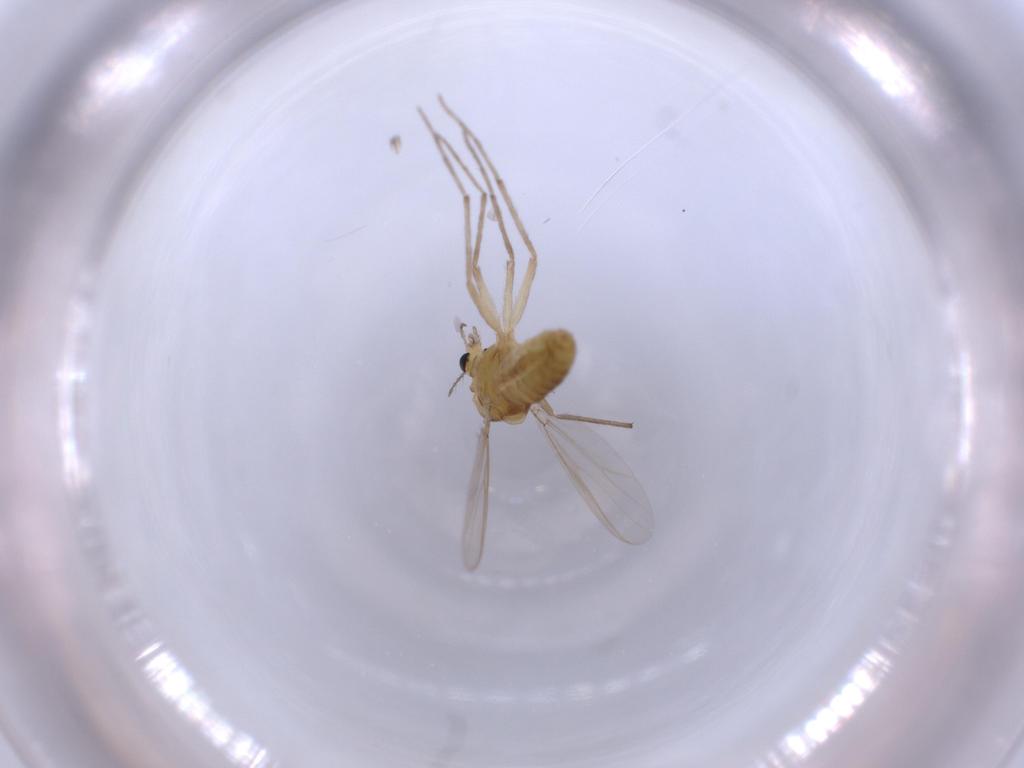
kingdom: Animalia
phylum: Arthropoda
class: Insecta
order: Diptera
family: Chironomidae
